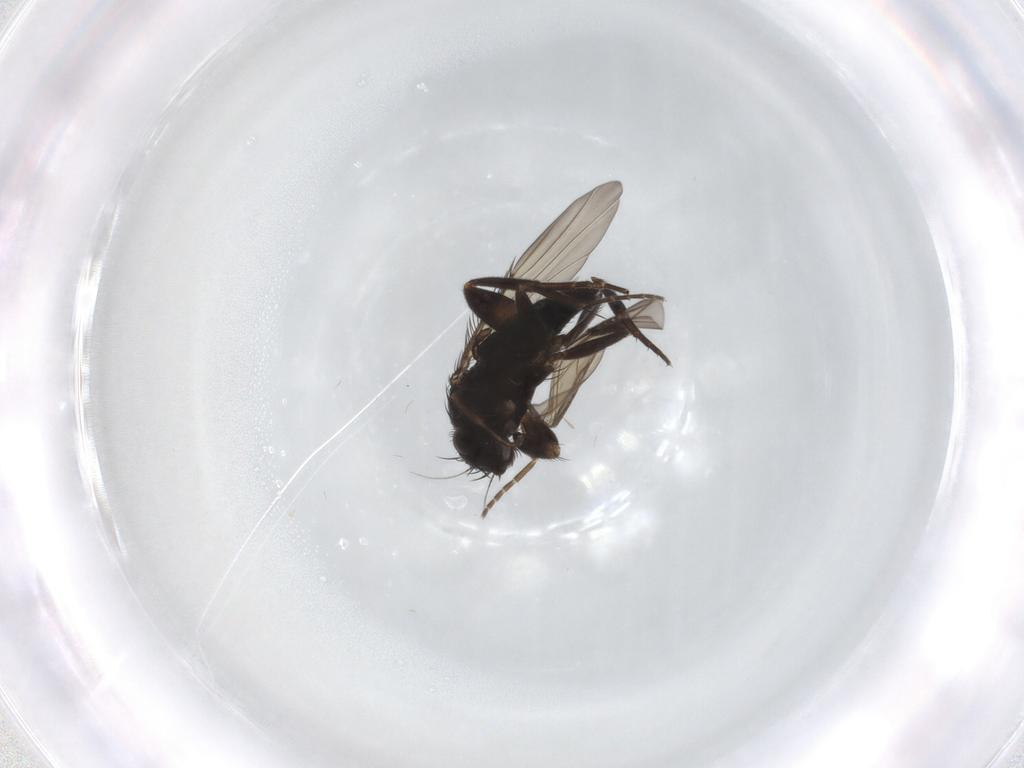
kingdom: Animalia
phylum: Arthropoda
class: Insecta
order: Diptera
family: Phoridae
